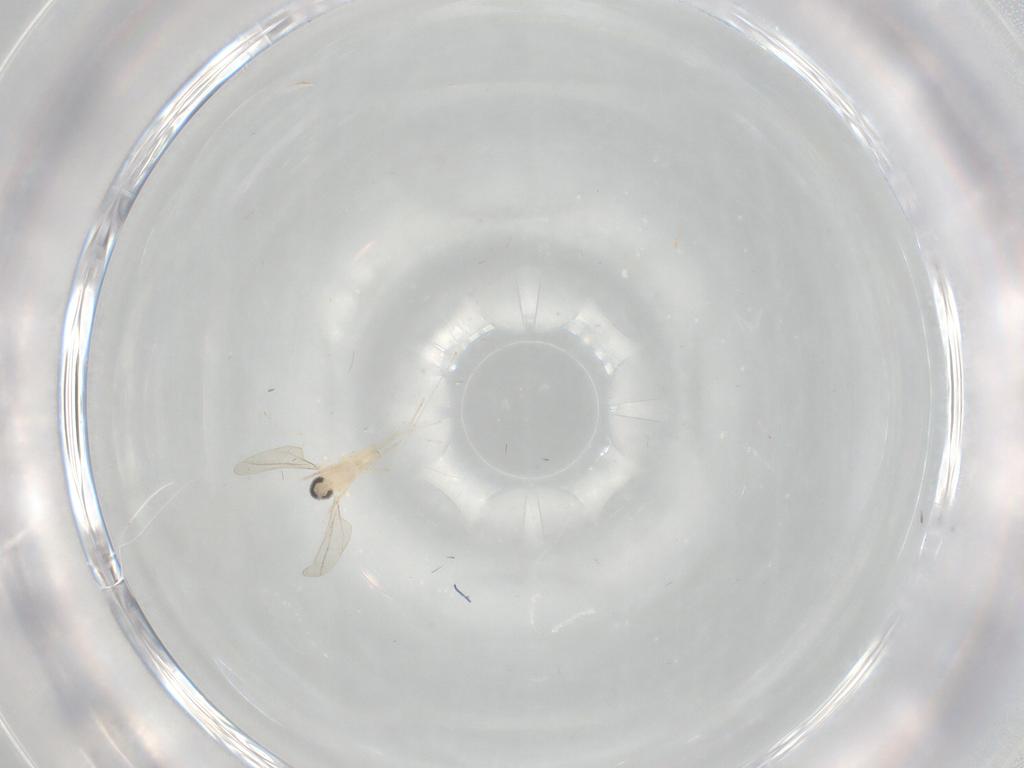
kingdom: Animalia
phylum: Arthropoda
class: Insecta
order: Diptera
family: Cecidomyiidae
